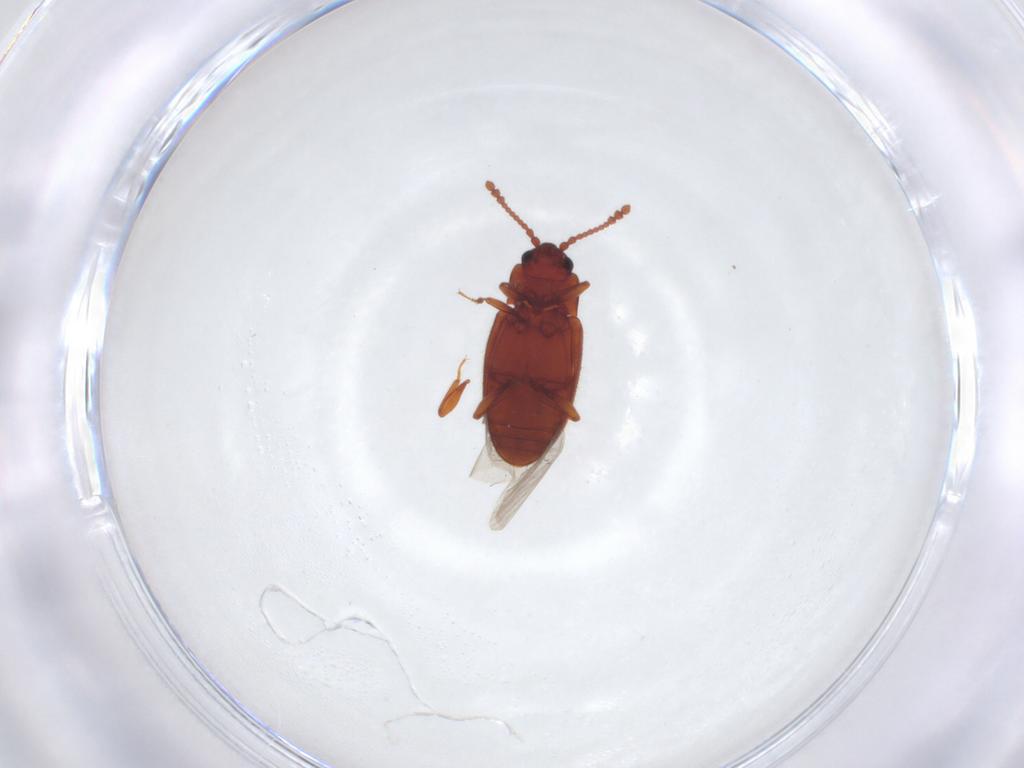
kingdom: Animalia
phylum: Arthropoda
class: Insecta
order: Coleoptera
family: Cryptophagidae
